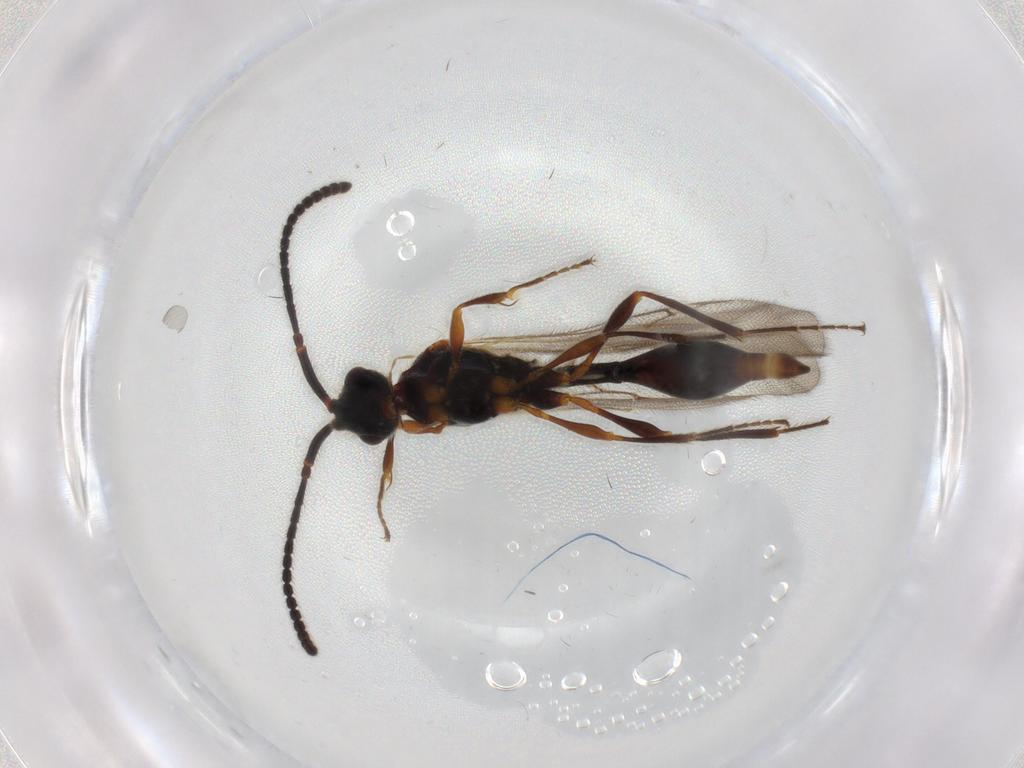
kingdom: Animalia
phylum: Arthropoda
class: Insecta
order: Hymenoptera
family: Diapriidae
